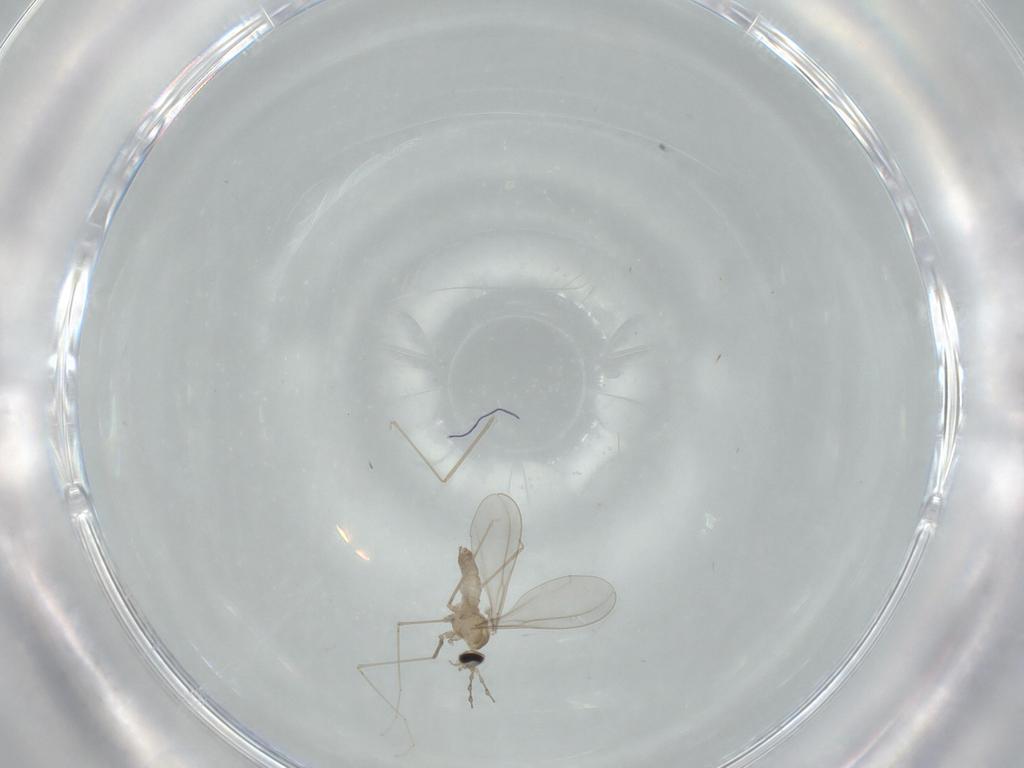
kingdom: Animalia
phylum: Arthropoda
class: Insecta
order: Diptera
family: Cecidomyiidae
